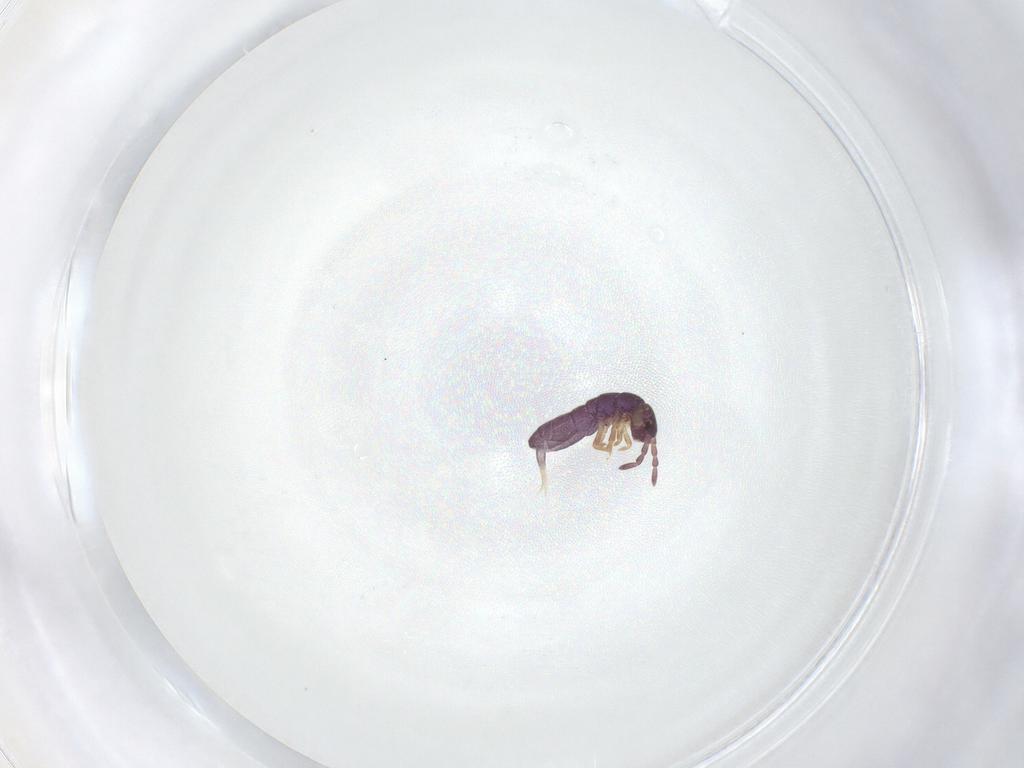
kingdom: Animalia
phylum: Arthropoda
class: Collembola
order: Entomobryomorpha
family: Isotomidae
